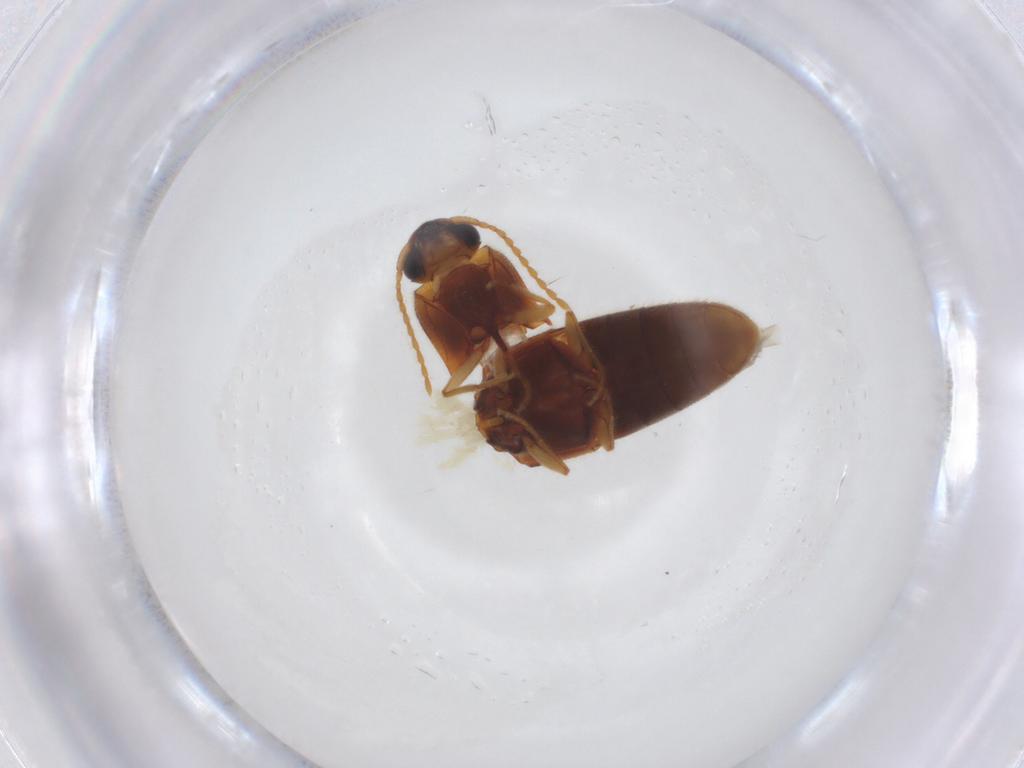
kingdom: Animalia
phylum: Arthropoda
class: Insecta
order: Coleoptera
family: Elateridae
